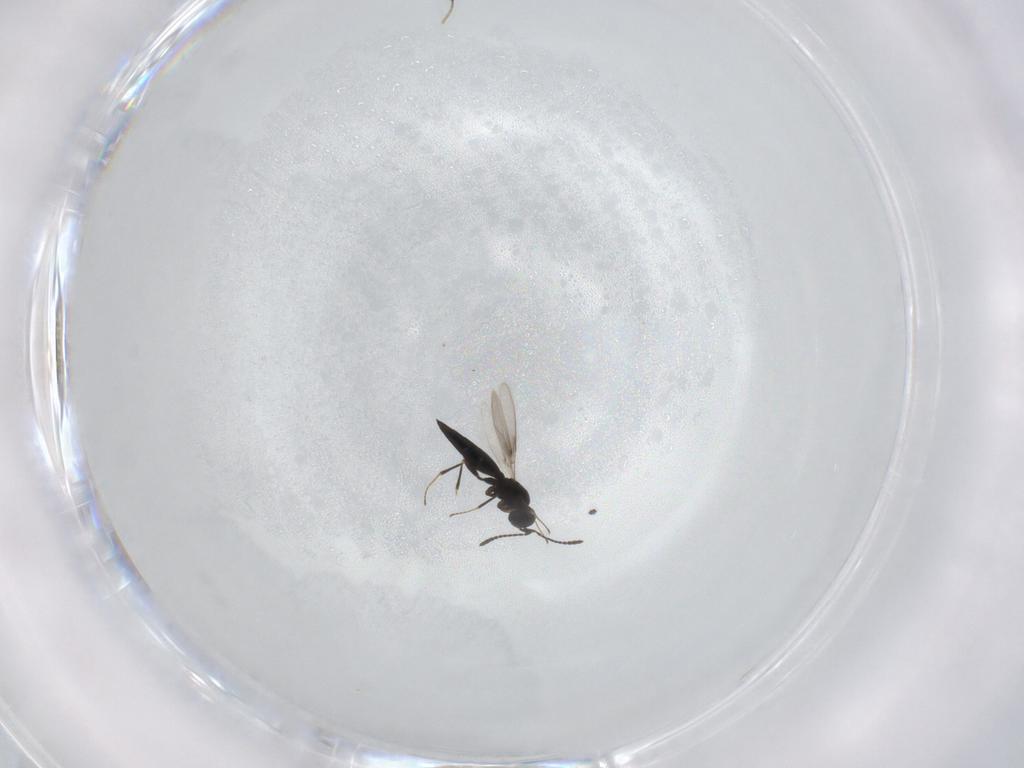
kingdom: Animalia
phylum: Arthropoda
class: Insecta
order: Hymenoptera
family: Scelionidae
